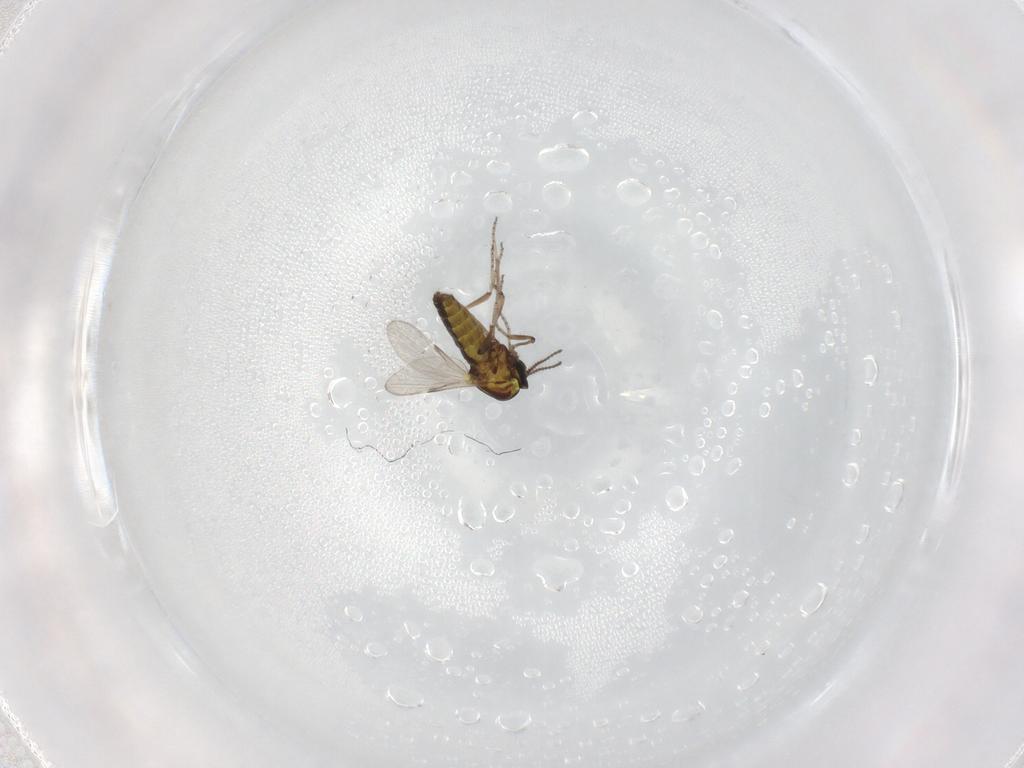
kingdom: Animalia
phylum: Arthropoda
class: Insecta
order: Diptera
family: Ceratopogonidae
